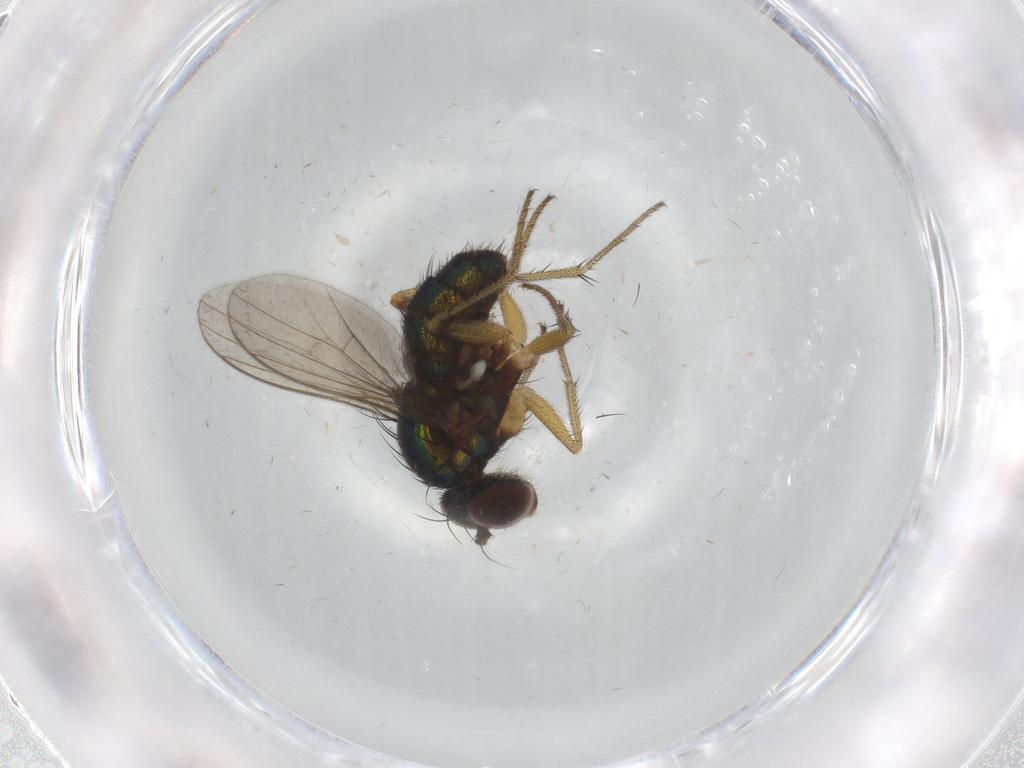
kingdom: Animalia
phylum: Arthropoda
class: Insecta
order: Diptera
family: Dolichopodidae
